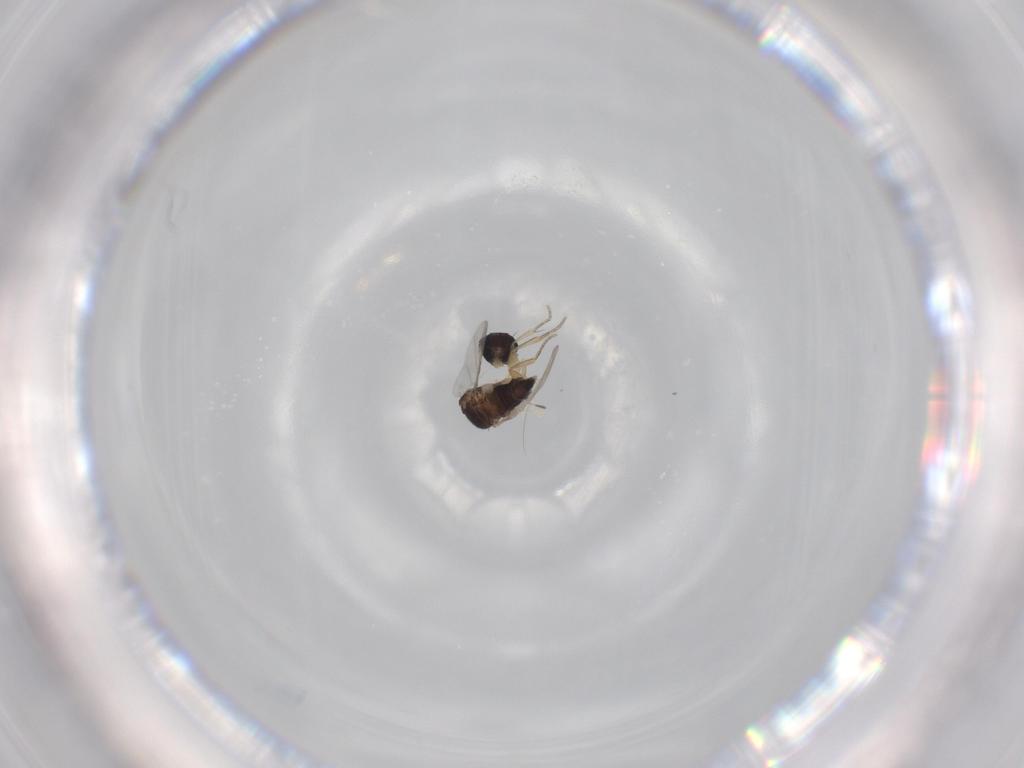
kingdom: Animalia
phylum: Arthropoda
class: Insecta
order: Diptera
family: Phoridae
